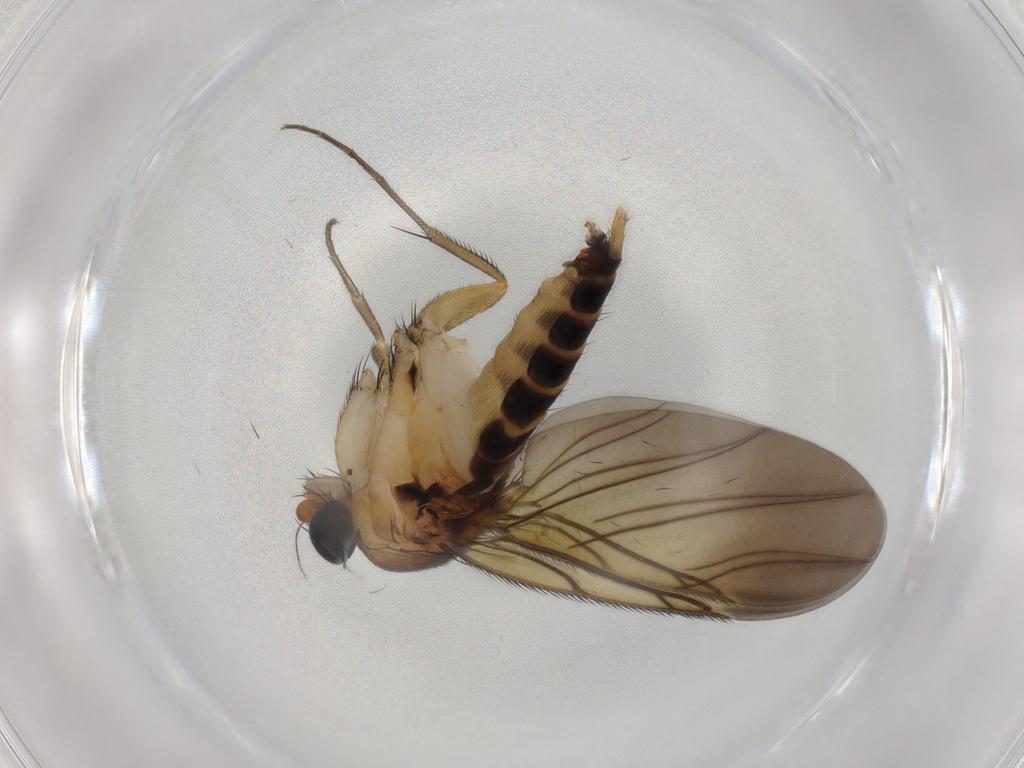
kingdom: Animalia
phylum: Arthropoda
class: Insecta
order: Diptera
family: Phoridae
